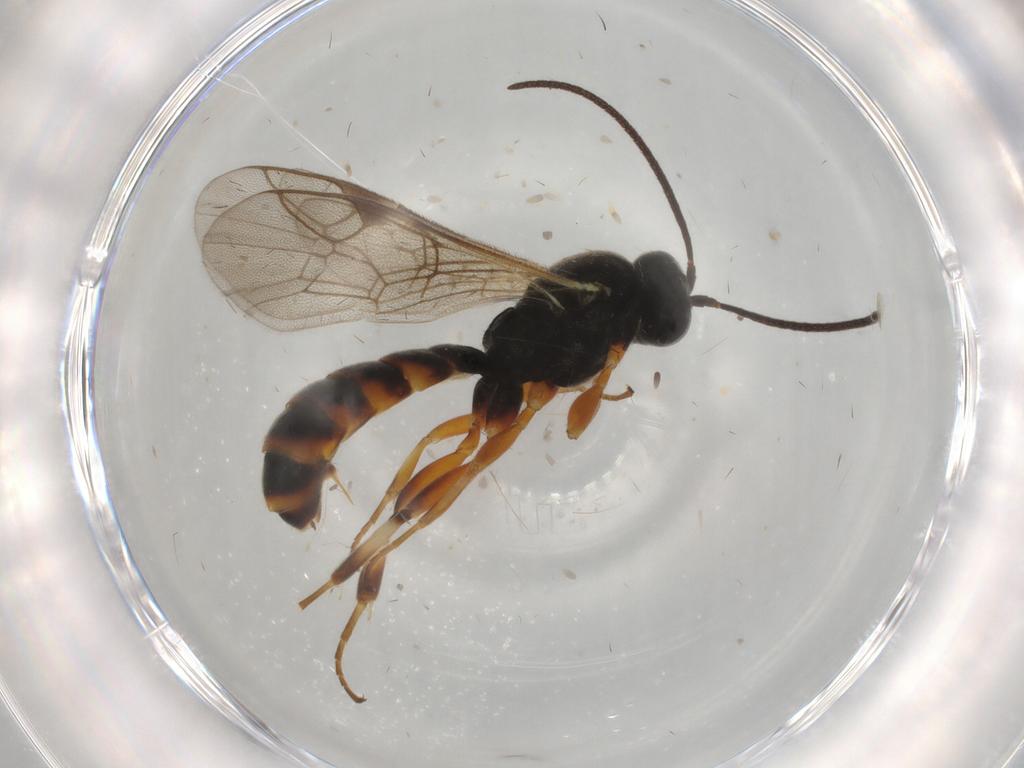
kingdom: Animalia
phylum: Arthropoda
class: Insecta
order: Hymenoptera
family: Ichneumonidae
